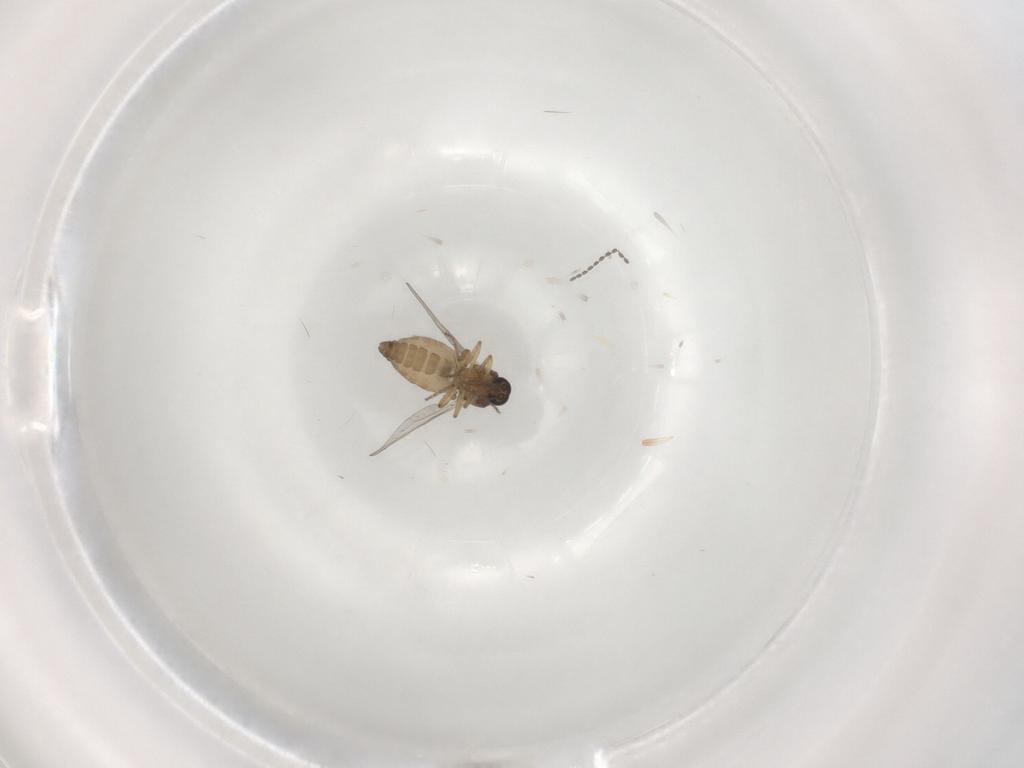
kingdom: Animalia
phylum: Arthropoda
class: Insecta
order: Diptera
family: Ceratopogonidae
